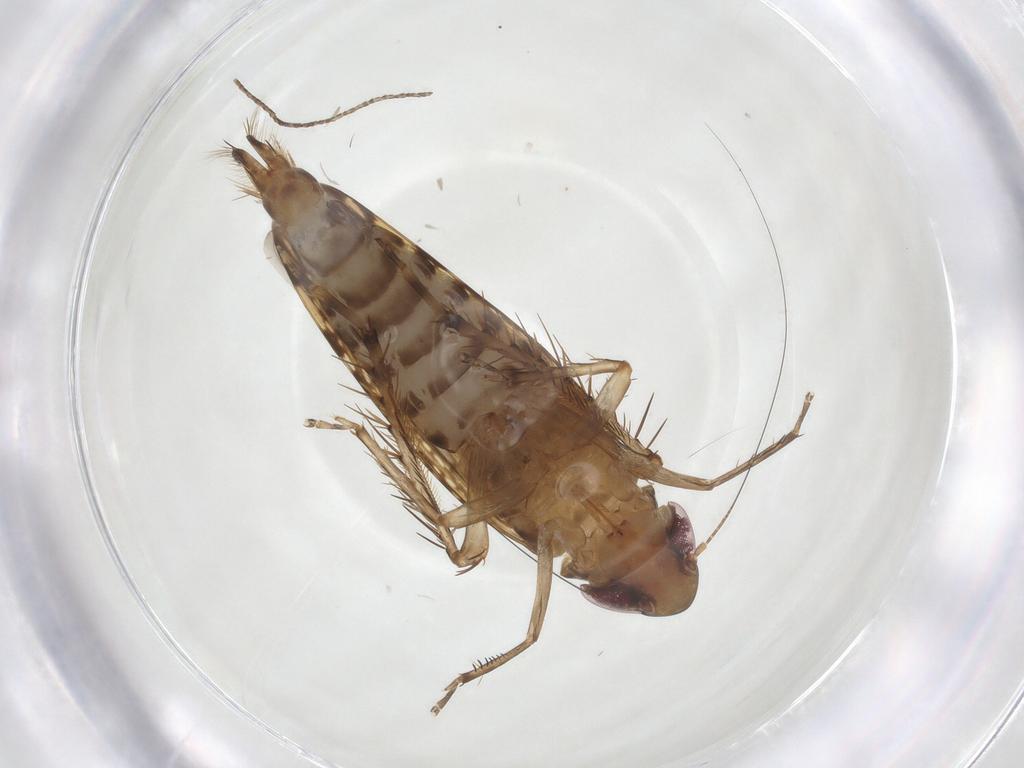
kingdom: Animalia
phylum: Arthropoda
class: Insecta
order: Hemiptera
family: Cicadellidae
